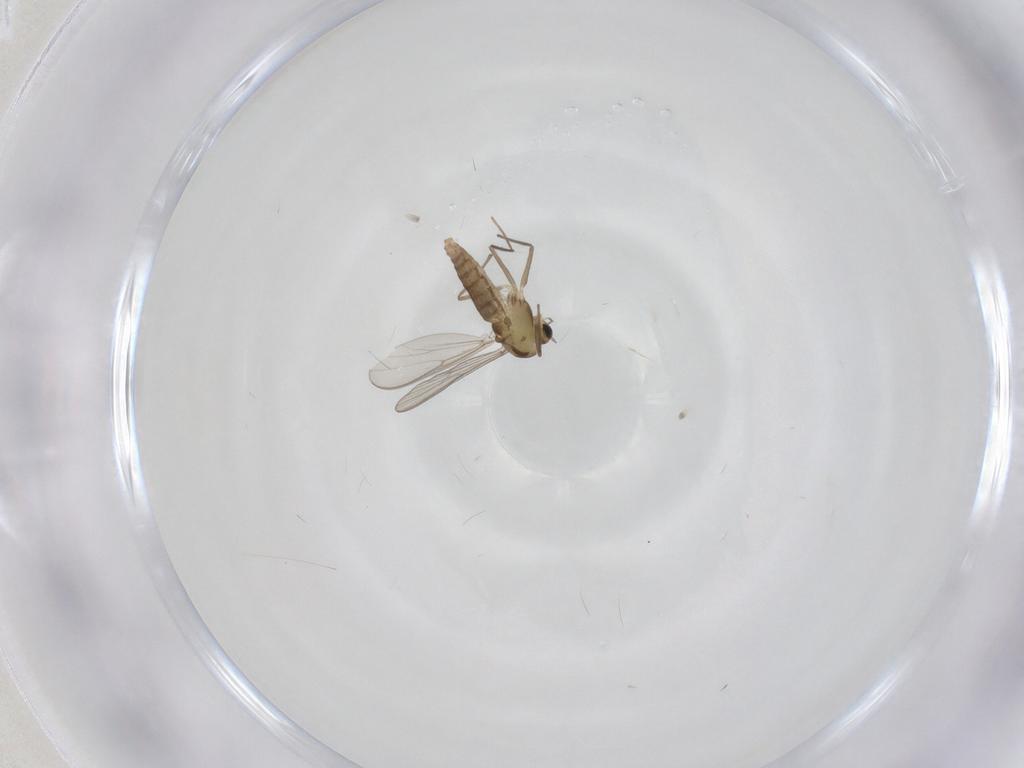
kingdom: Animalia
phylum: Arthropoda
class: Insecta
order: Diptera
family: Chironomidae
